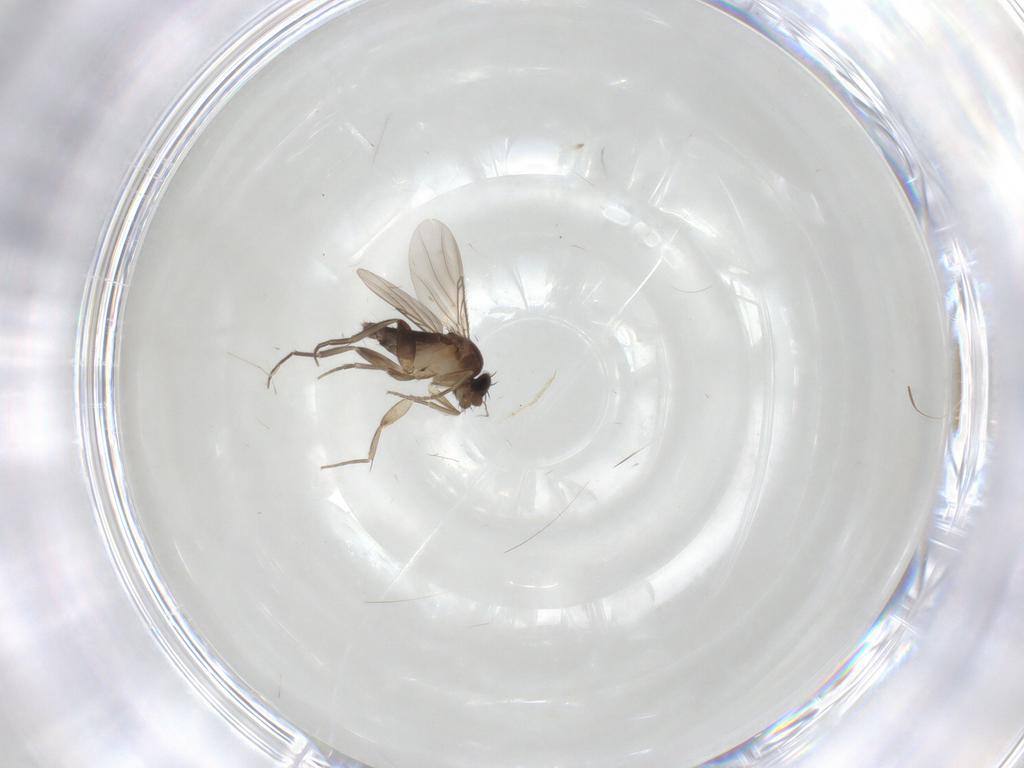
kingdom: Animalia
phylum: Arthropoda
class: Insecta
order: Diptera
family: Phoridae
